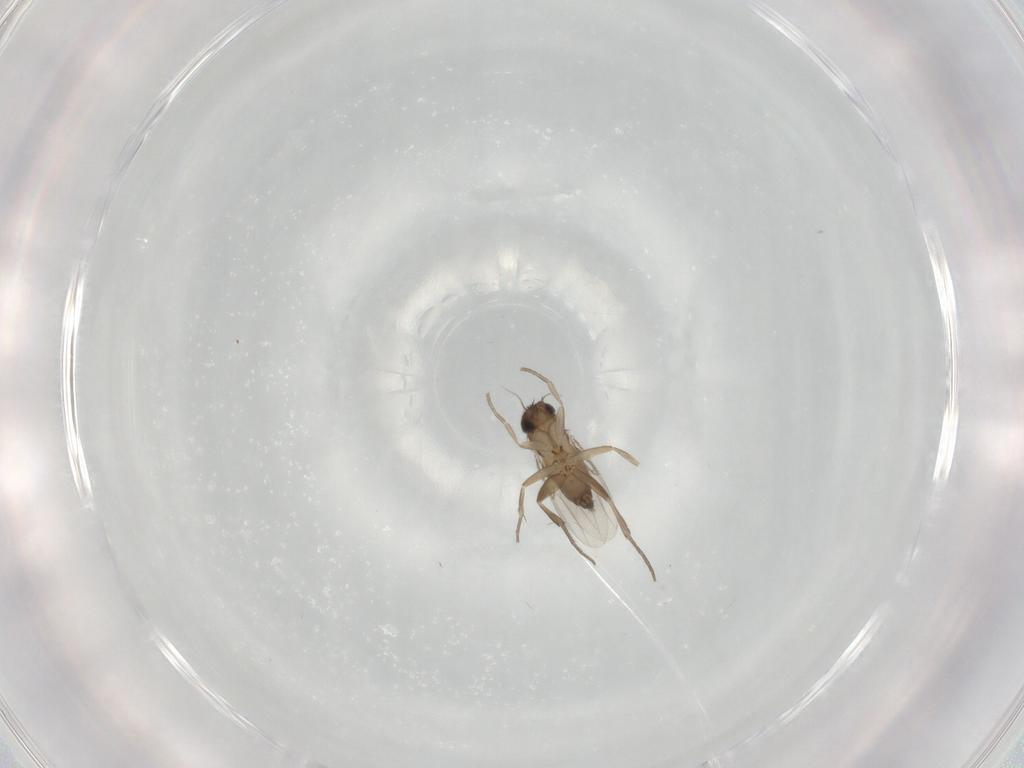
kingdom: Animalia
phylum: Arthropoda
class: Insecta
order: Diptera
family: Phoridae
